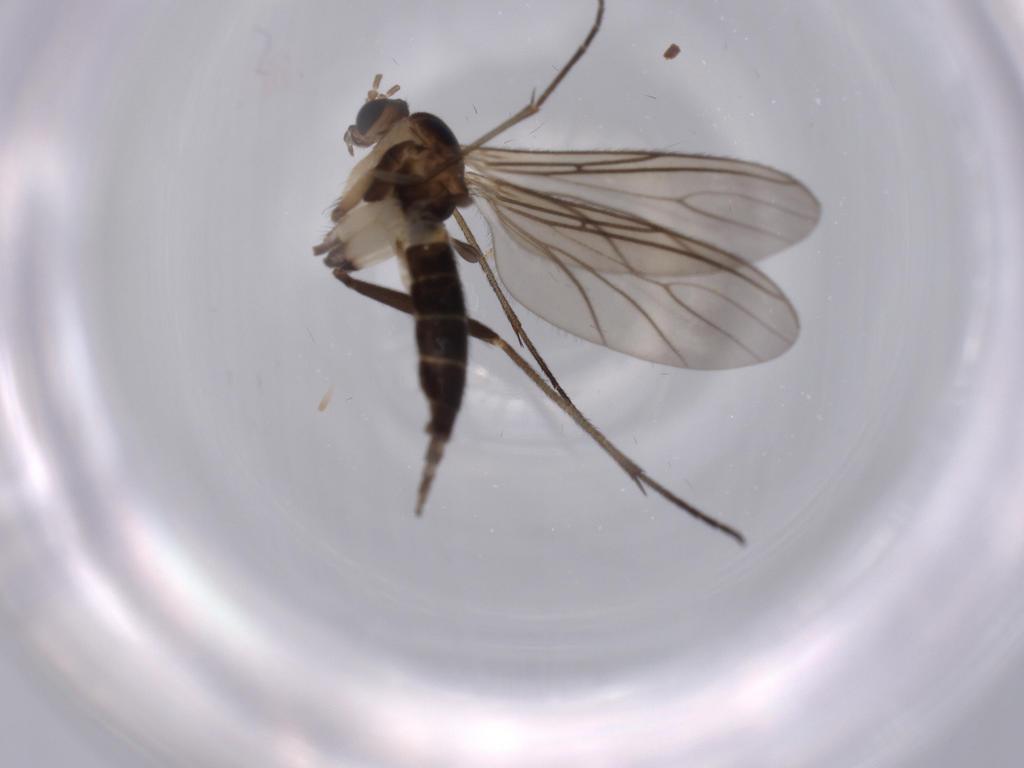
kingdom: Animalia
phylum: Arthropoda
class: Insecta
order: Diptera
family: Sciaridae
